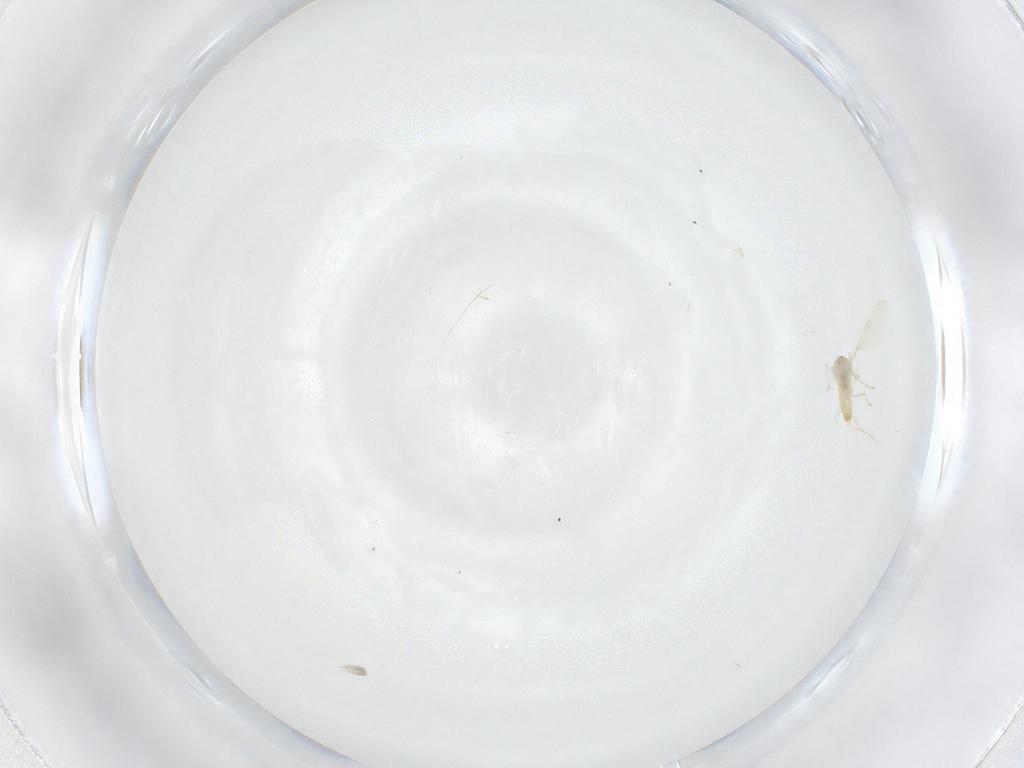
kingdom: Animalia
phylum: Arthropoda
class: Insecta
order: Diptera
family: Cecidomyiidae
